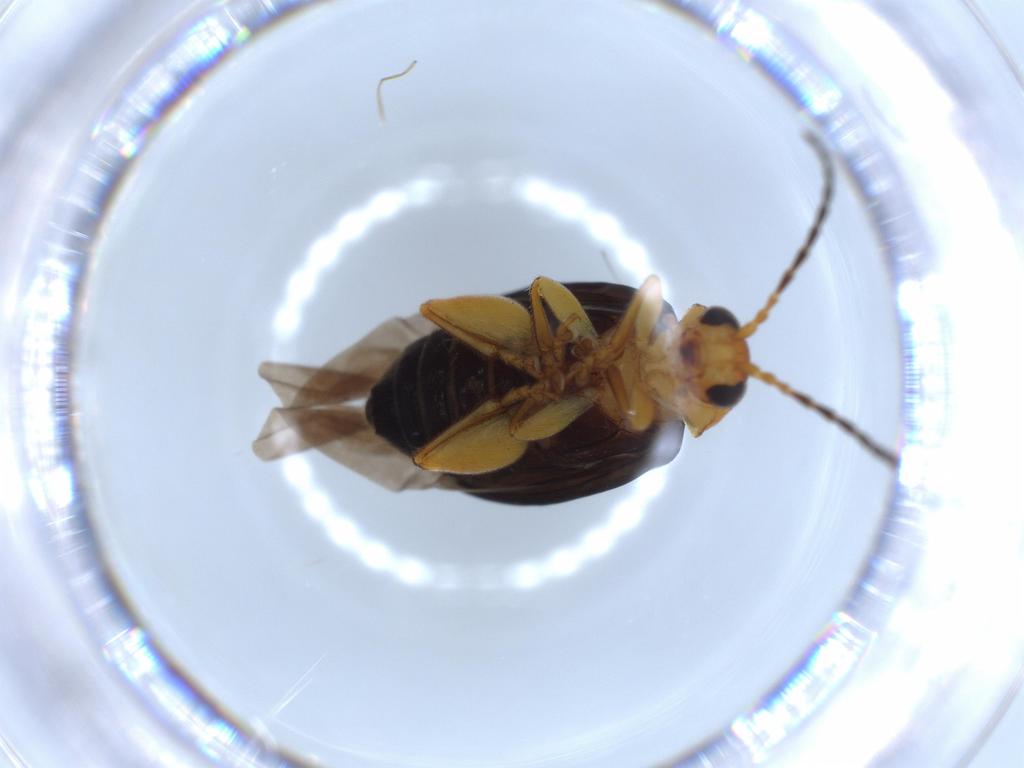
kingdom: Animalia
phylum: Arthropoda
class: Insecta
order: Coleoptera
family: Chrysomelidae
